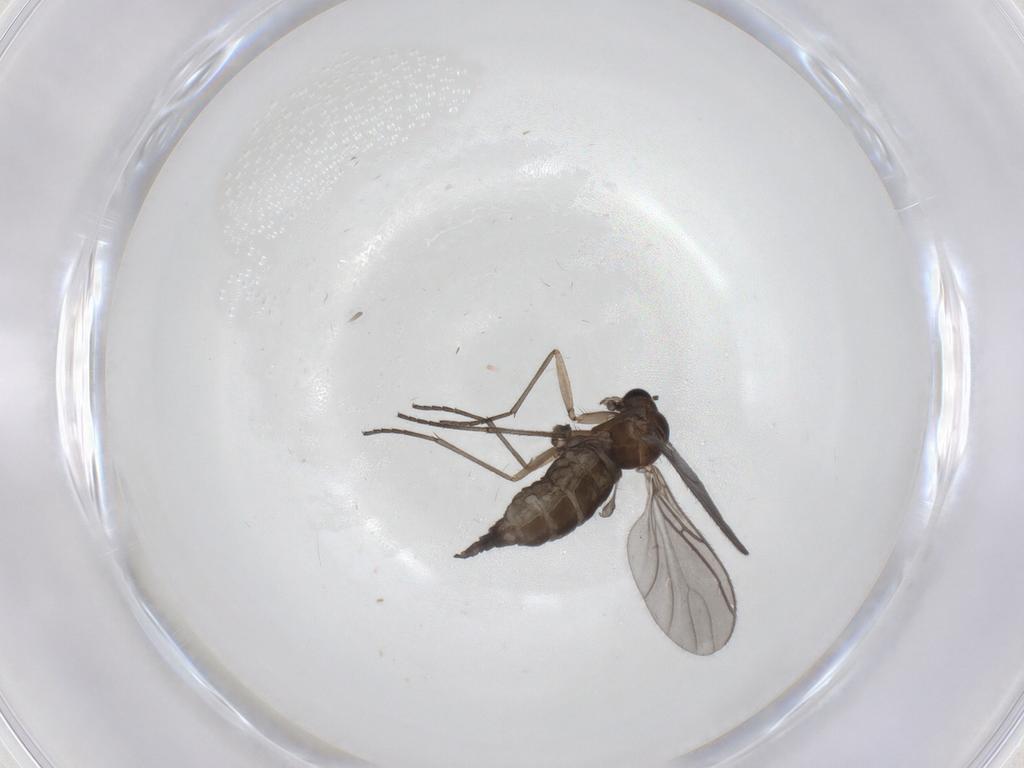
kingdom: Animalia
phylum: Arthropoda
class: Insecta
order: Diptera
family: Sciaridae
